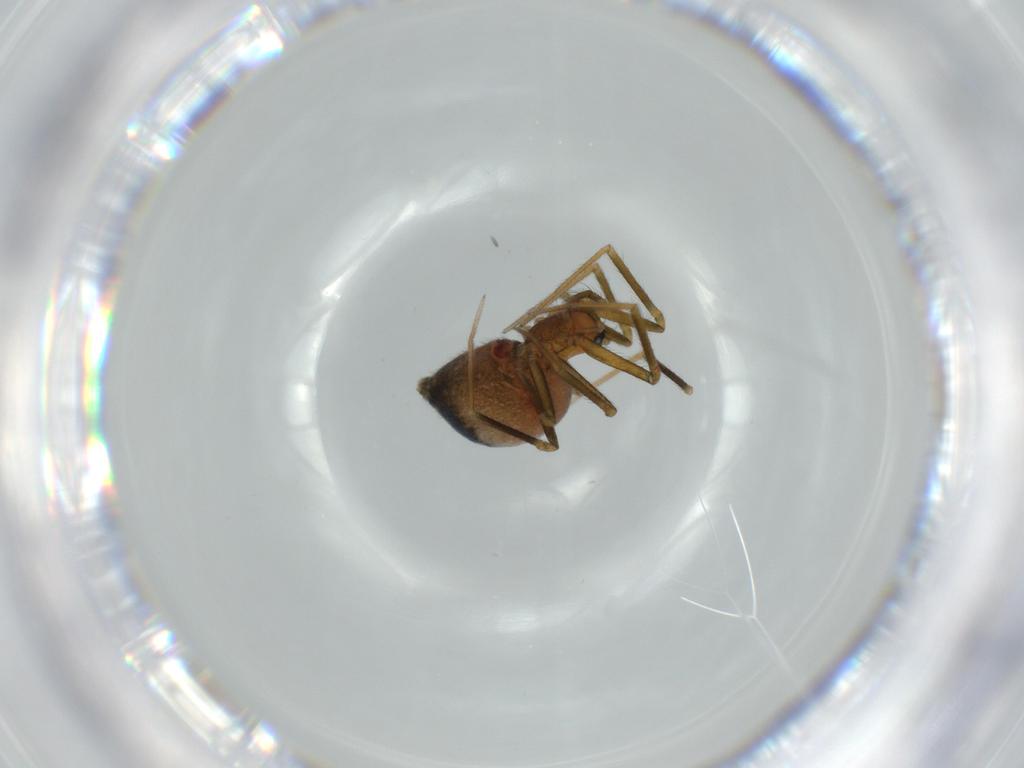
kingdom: Animalia
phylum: Arthropoda
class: Arachnida
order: Araneae
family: Linyphiidae
